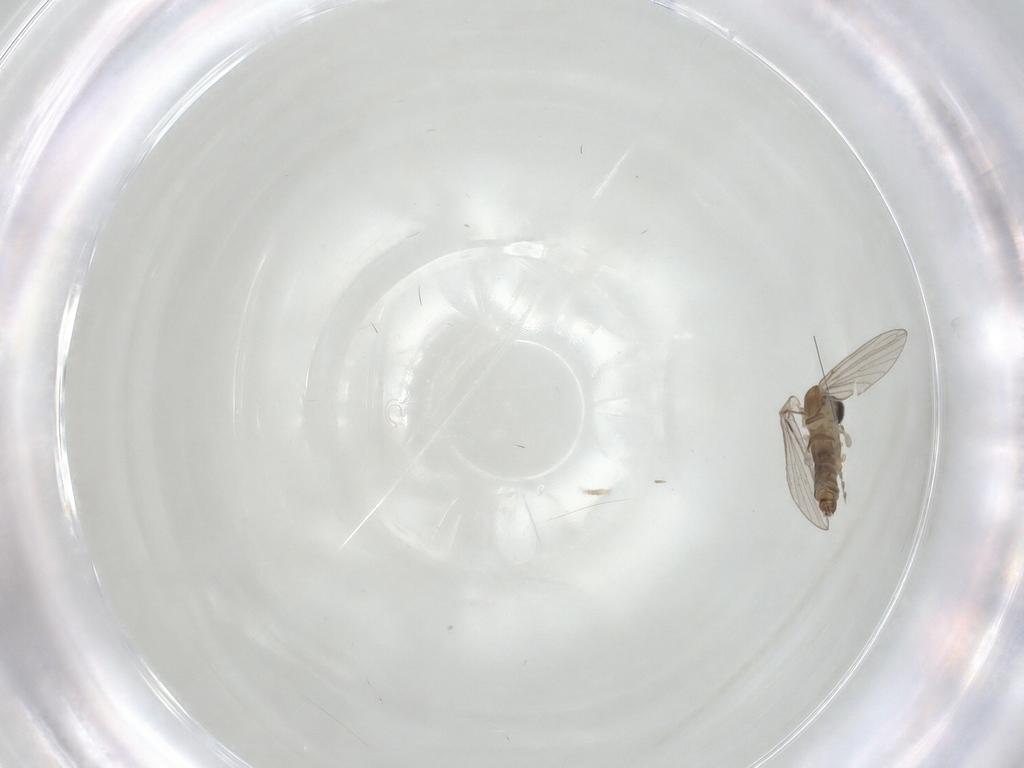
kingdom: Animalia
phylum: Arthropoda
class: Insecta
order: Diptera
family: Chironomidae
